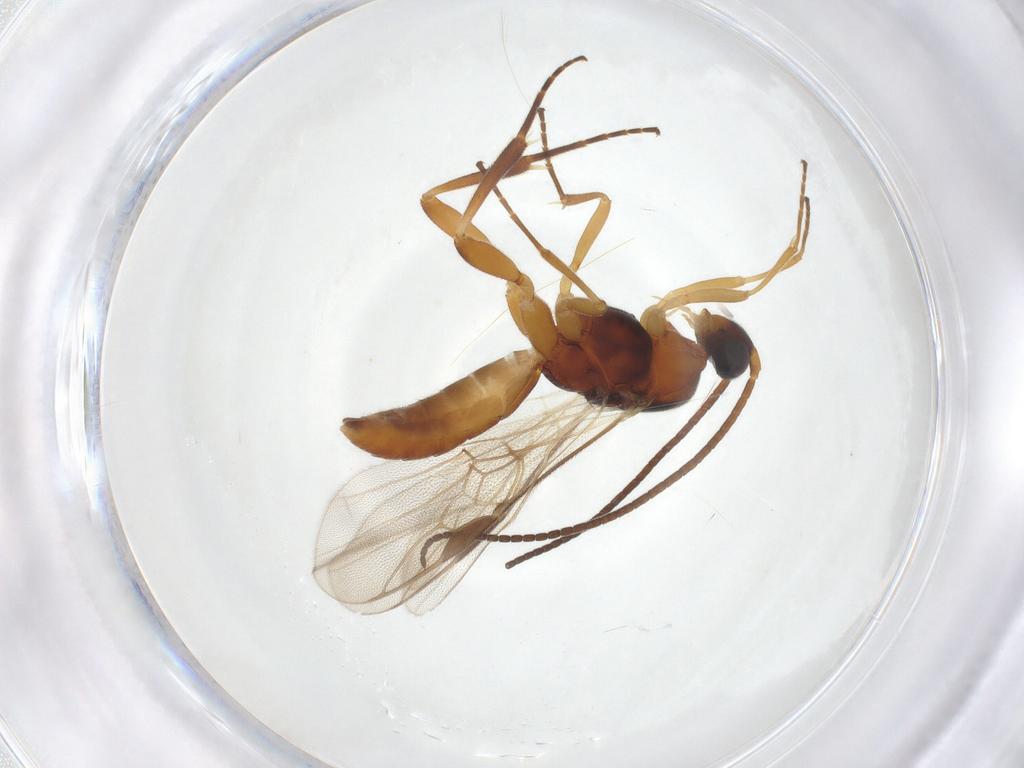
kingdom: Animalia
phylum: Arthropoda
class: Insecta
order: Hymenoptera
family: Braconidae
